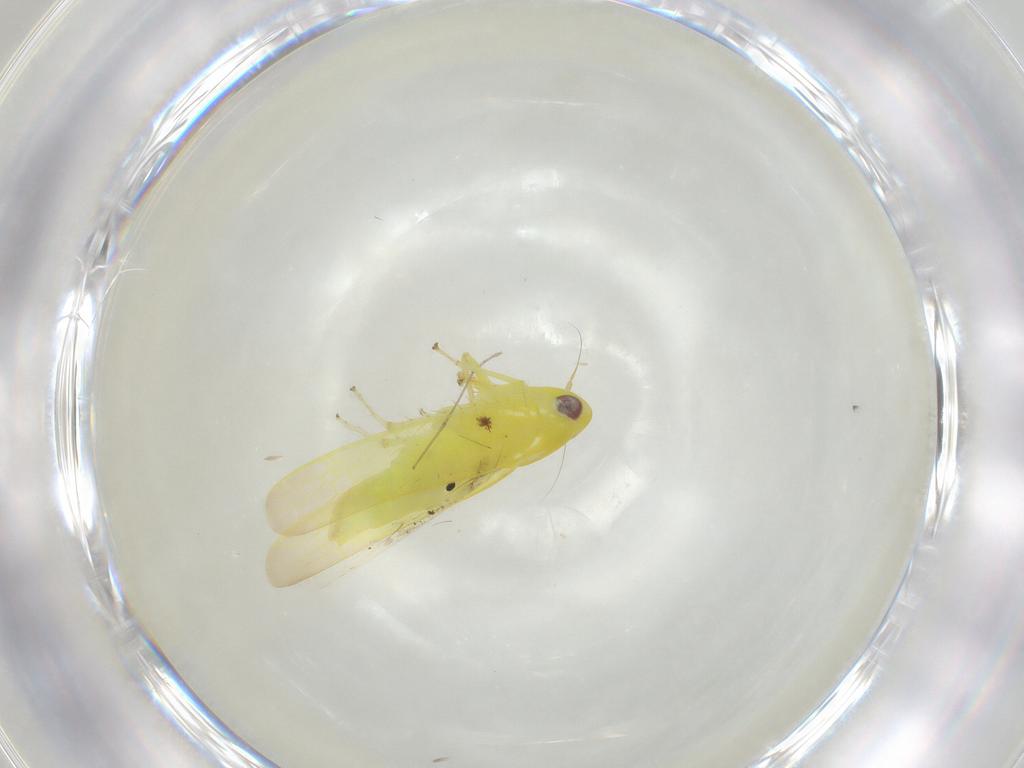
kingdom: Animalia
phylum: Arthropoda
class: Insecta
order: Hemiptera
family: Cicadellidae
